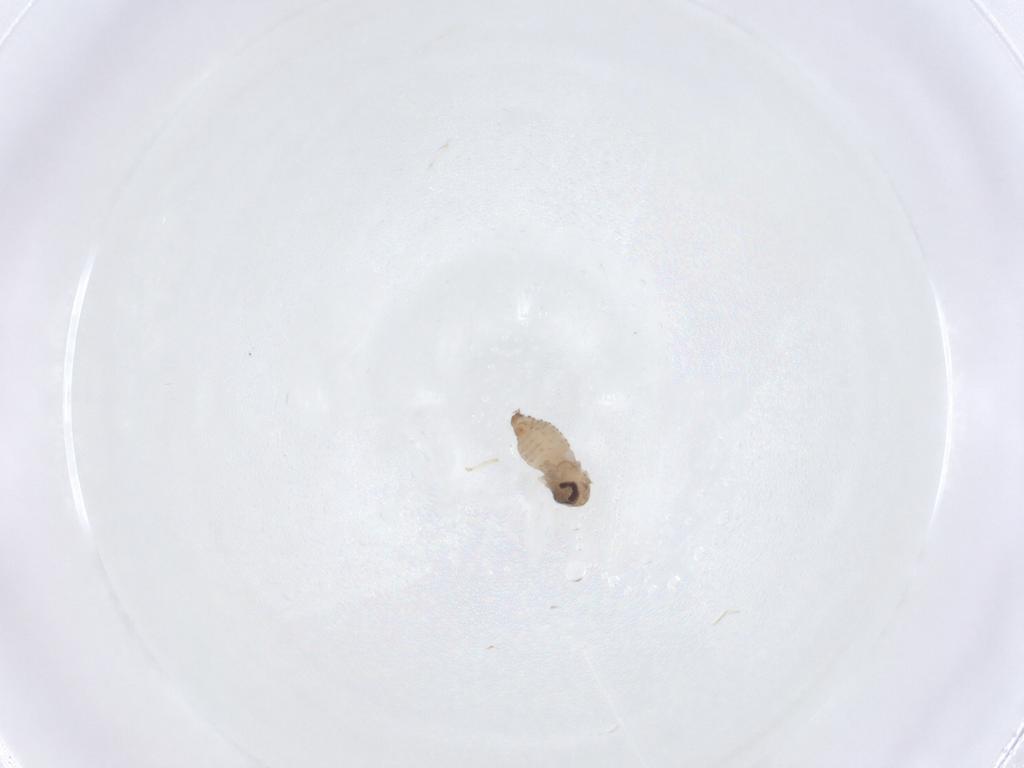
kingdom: Animalia
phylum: Arthropoda
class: Insecta
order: Diptera
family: Psychodidae
